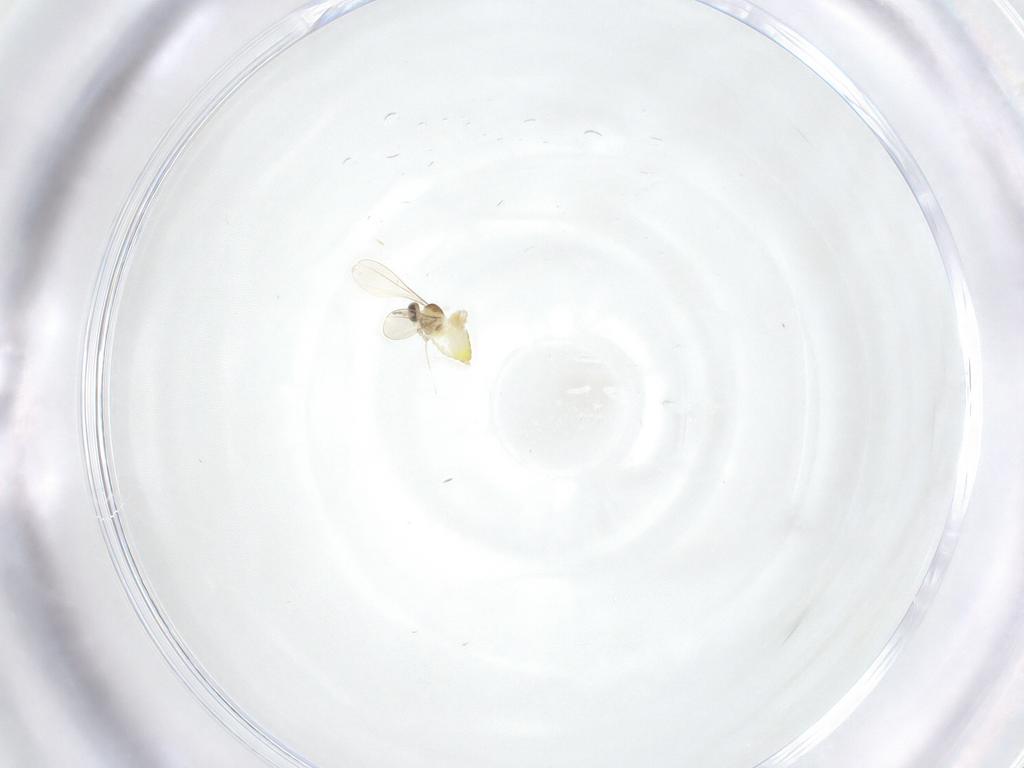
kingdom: Animalia
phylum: Arthropoda
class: Insecta
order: Diptera
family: Cecidomyiidae
